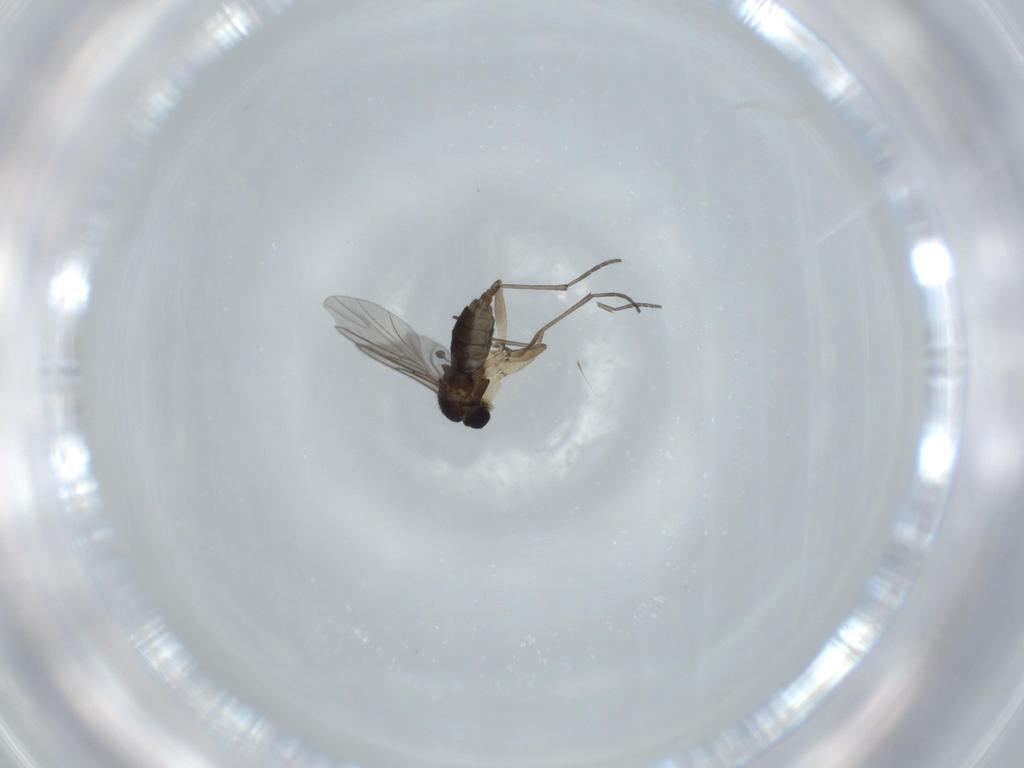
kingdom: Animalia
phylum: Arthropoda
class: Insecta
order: Diptera
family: Sciaridae
